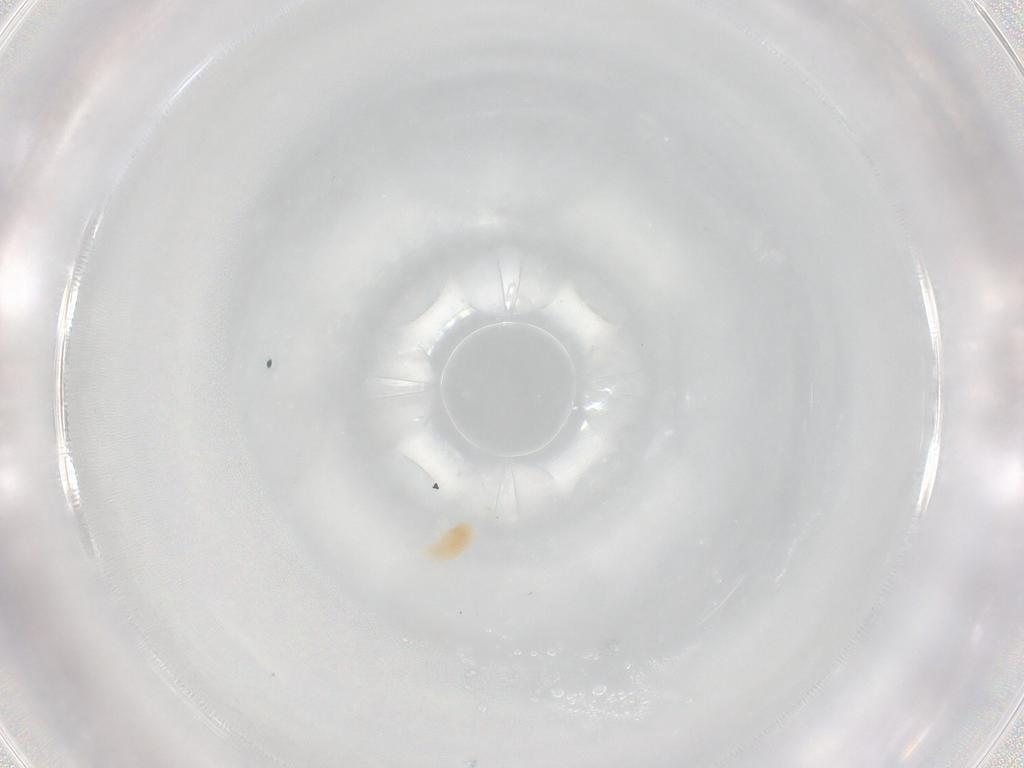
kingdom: Animalia
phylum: Arthropoda
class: Arachnida
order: Trombidiformes
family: Eupodidae
